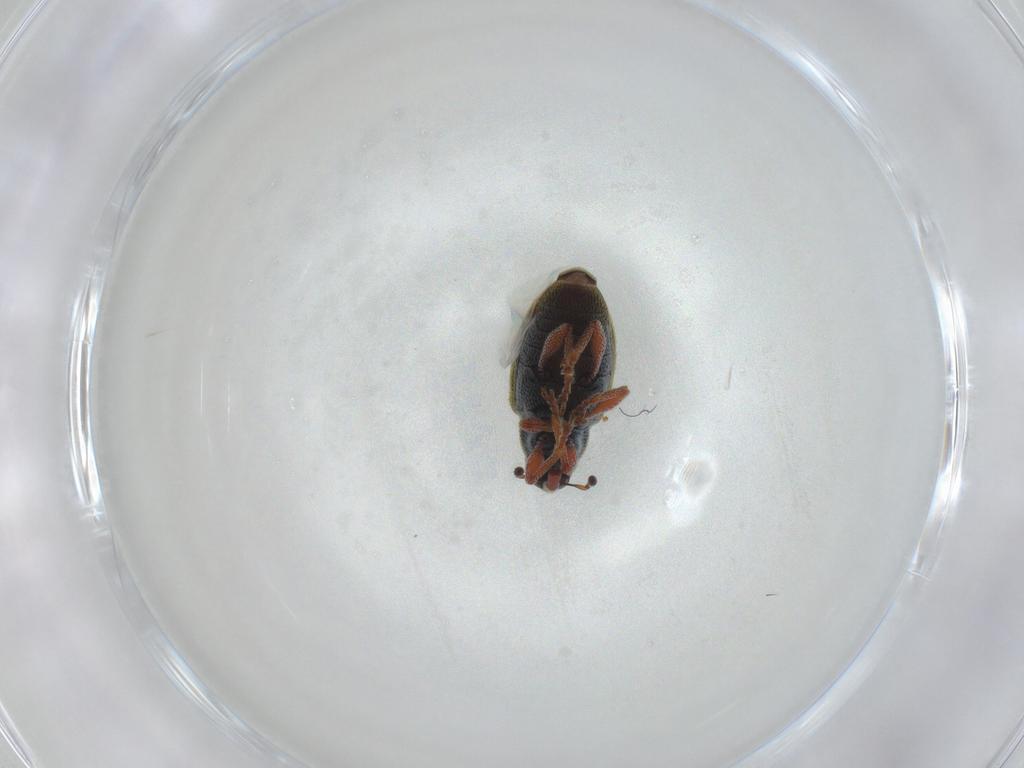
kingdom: Animalia
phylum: Arthropoda
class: Insecta
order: Coleoptera
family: Curculionidae
